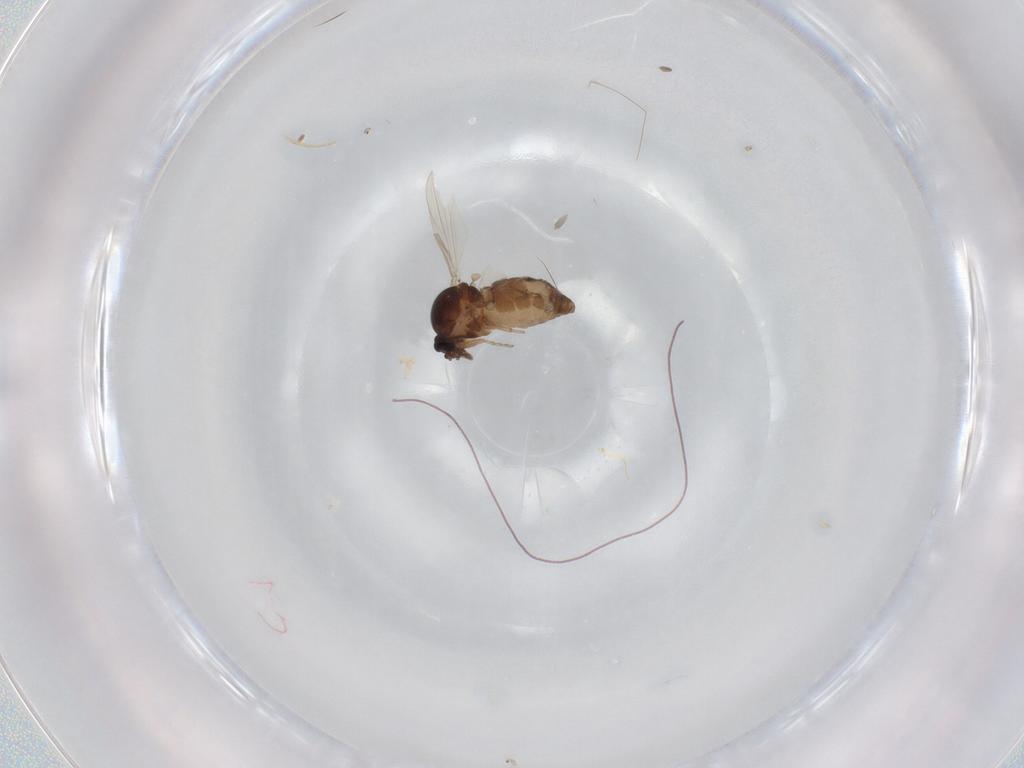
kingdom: Animalia
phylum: Arthropoda
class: Insecta
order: Diptera
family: Ceratopogonidae
